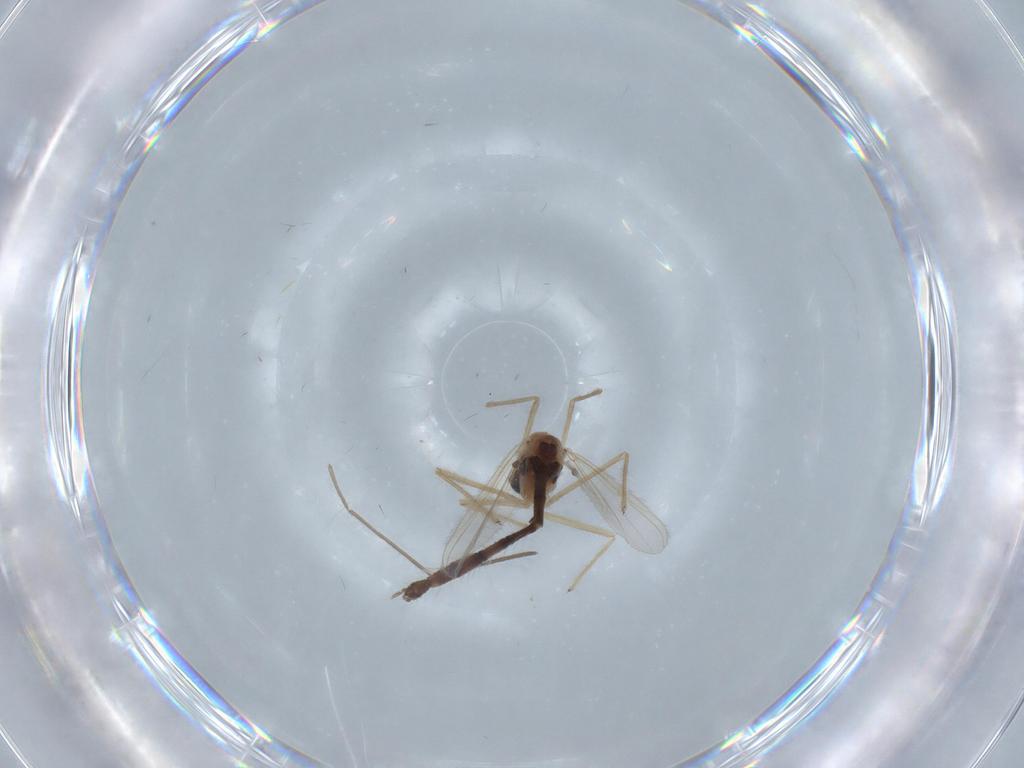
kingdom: Animalia
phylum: Arthropoda
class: Insecta
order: Diptera
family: Chironomidae
